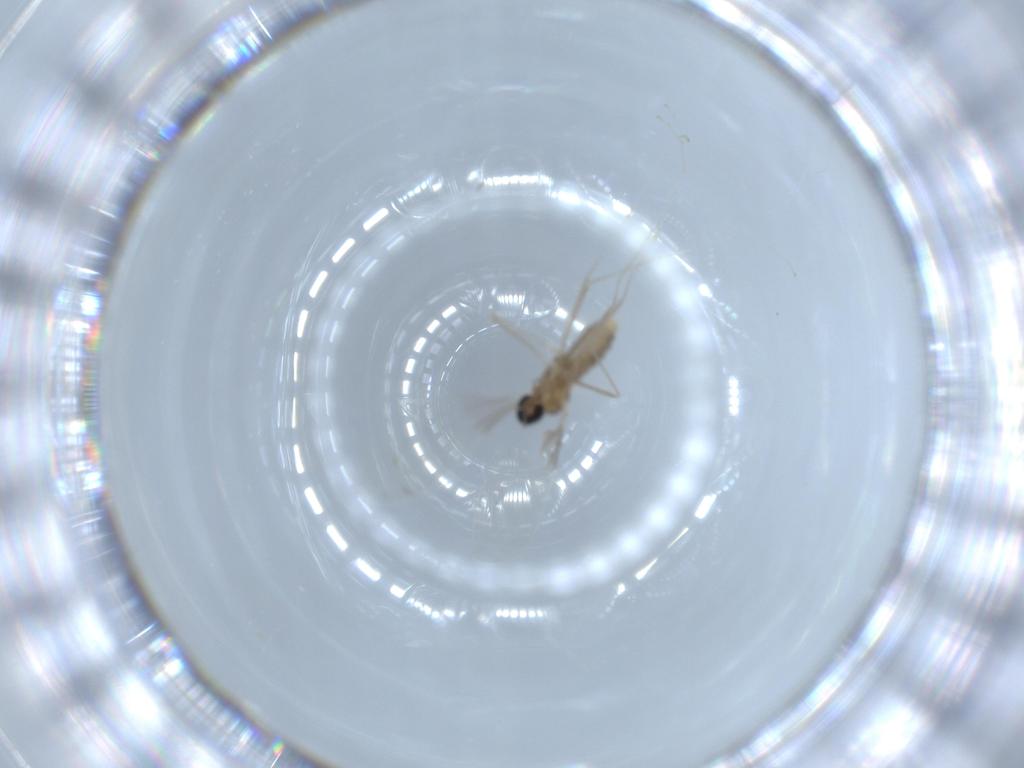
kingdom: Animalia
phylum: Arthropoda
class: Insecta
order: Diptera
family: Cecidomyiidae
